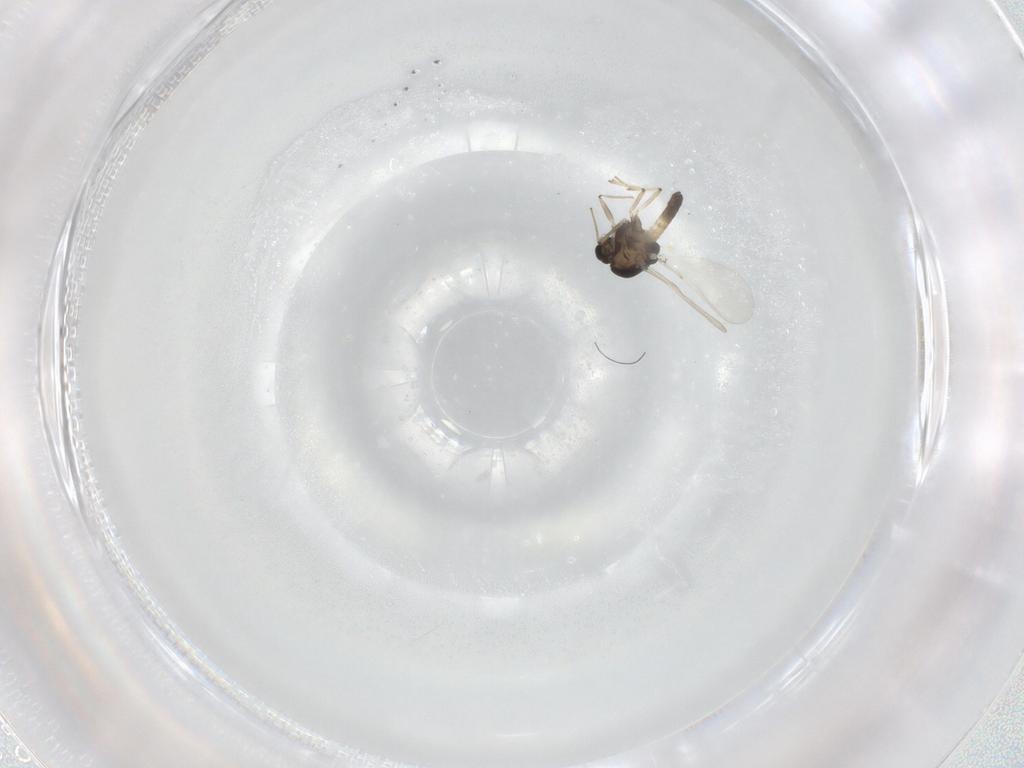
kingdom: Animalia
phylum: Arthropoda
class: Insecta
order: Diptera
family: Chironomidae
